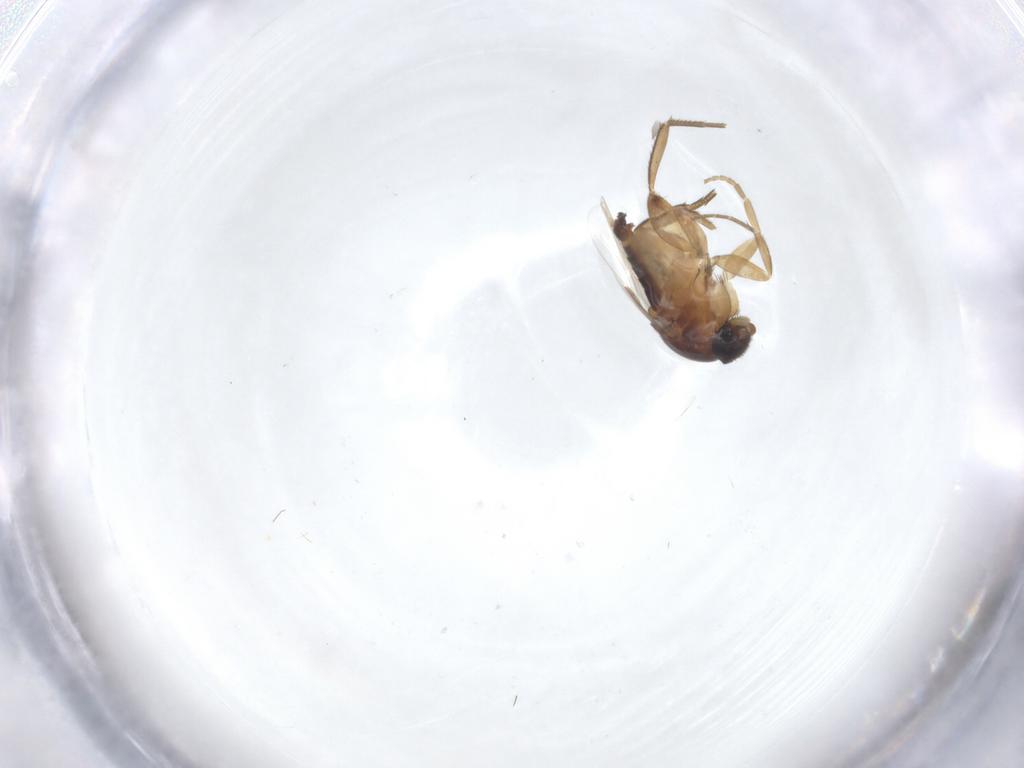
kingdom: Animalia
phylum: Arthropoda
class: Insecta
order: Diptera
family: Phoridae
